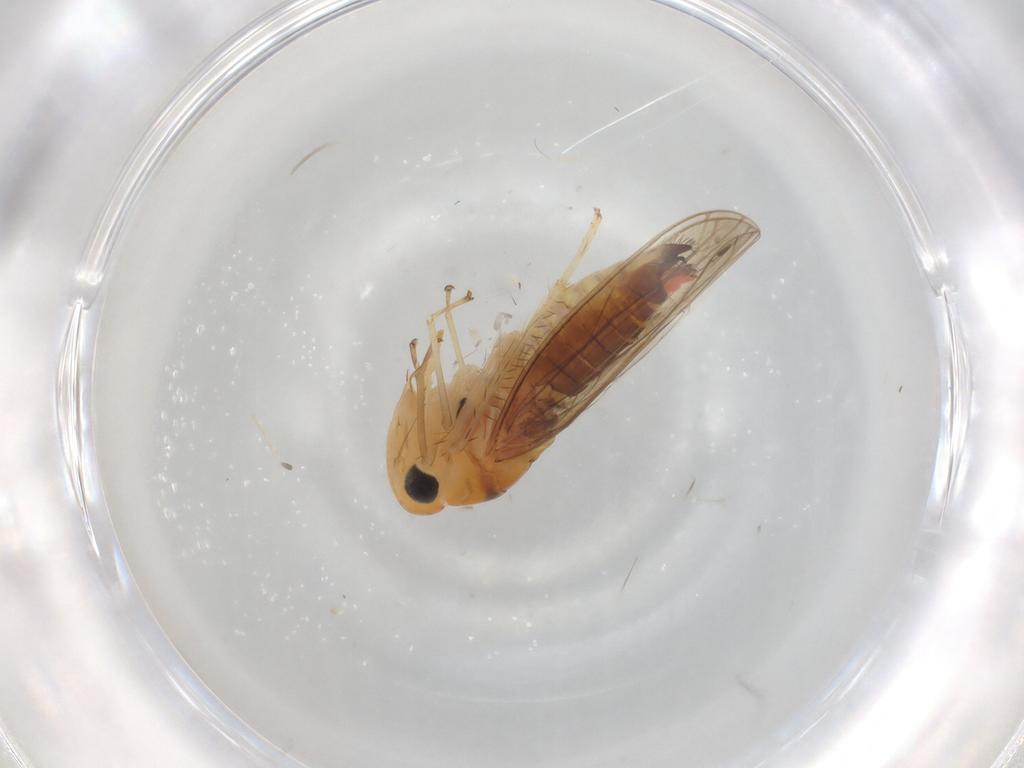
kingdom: Animalia
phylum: Arthropoda
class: Insecta
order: Hemiptera
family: Cicadellidae
